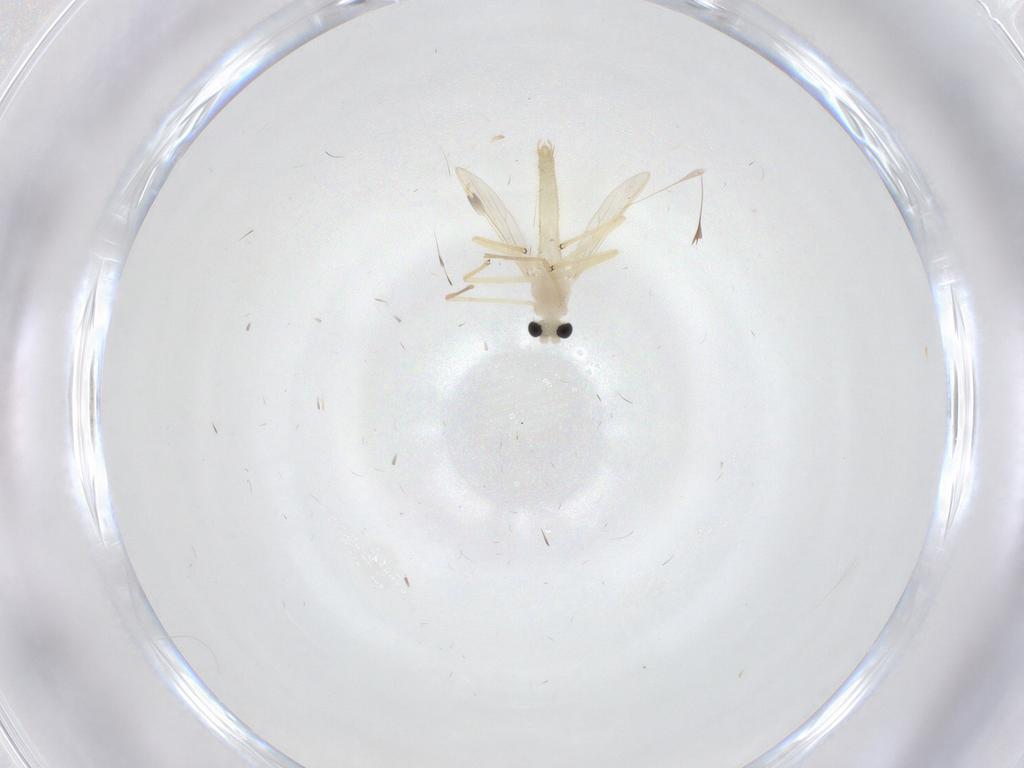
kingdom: Animalia
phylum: Arthropoda
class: Insecta
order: Diptera
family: Chironomidae
